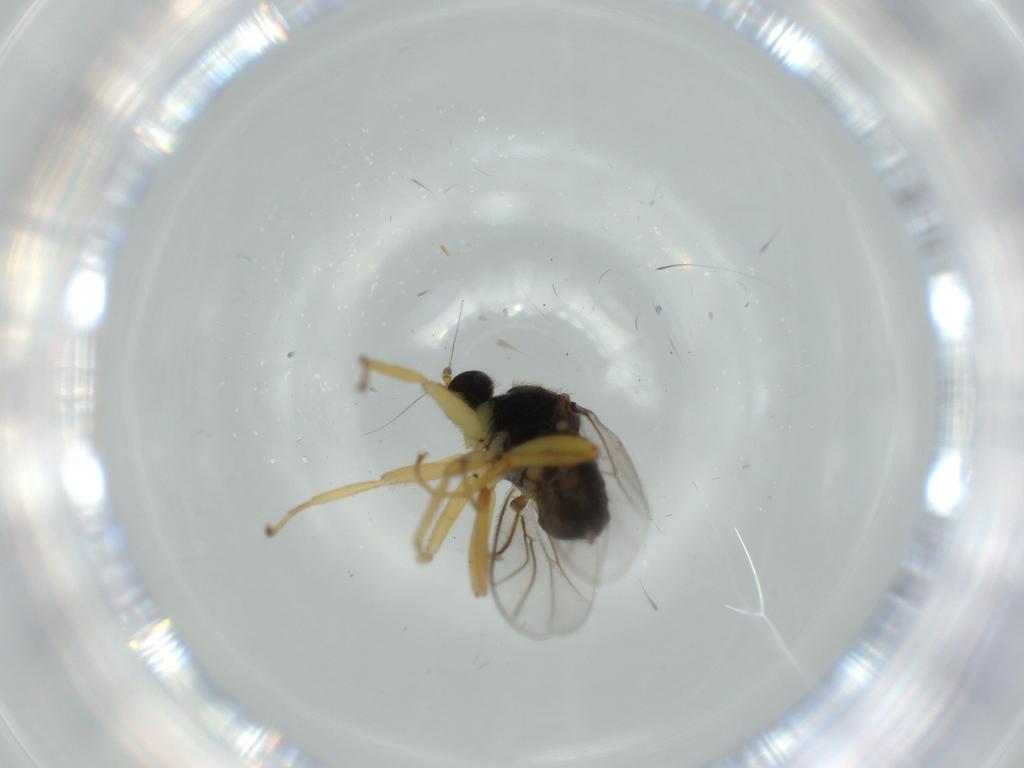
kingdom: Animalia
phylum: Arthropoda
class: Insecta
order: Diptera
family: Hybotidae
